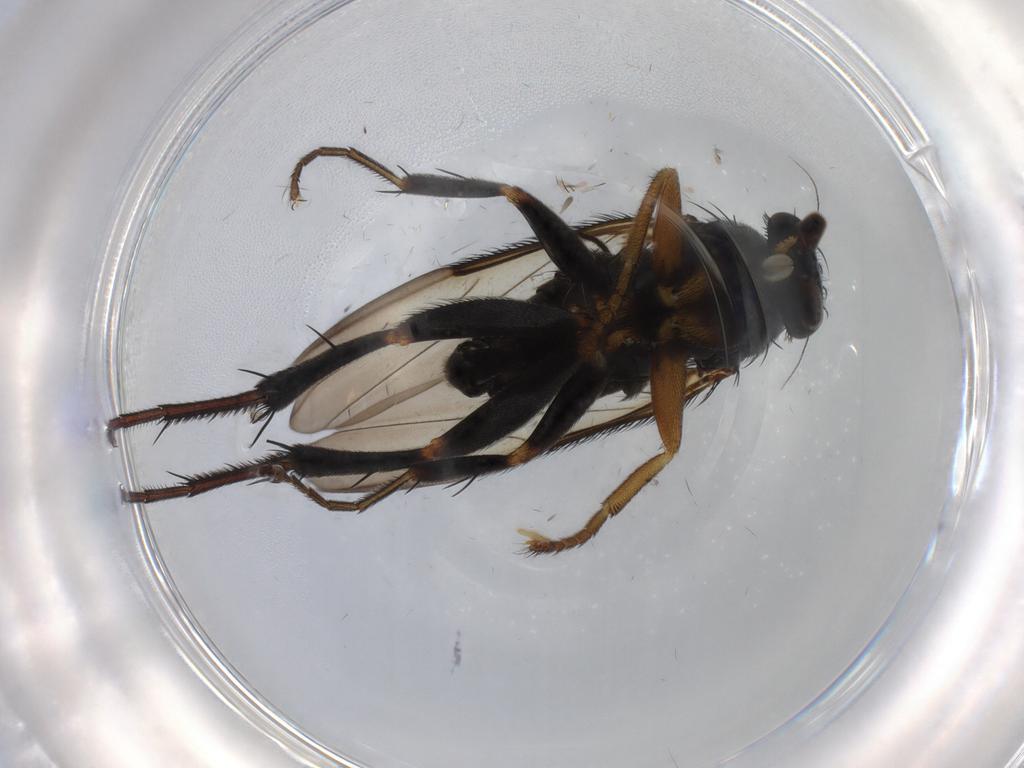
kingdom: Animalia
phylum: Arthropoda
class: Insecta
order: Diptera
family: Phoridae
